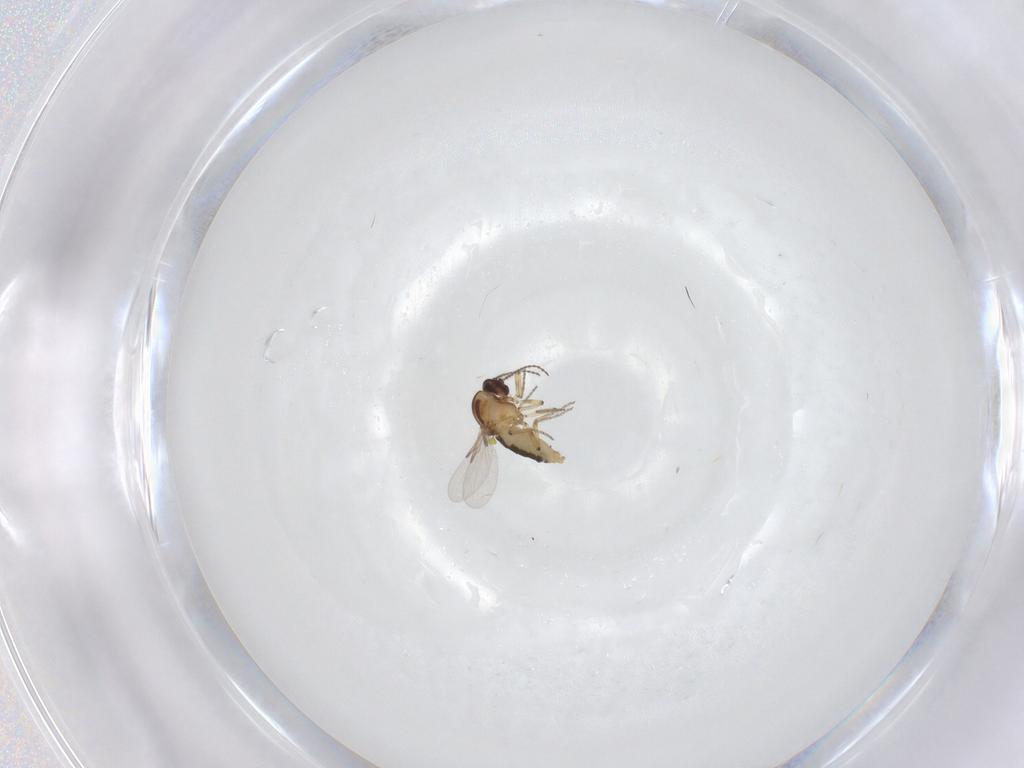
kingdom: Animalia
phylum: Arthropoda
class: Insecta
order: Diptera
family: Ceratopogonidae
